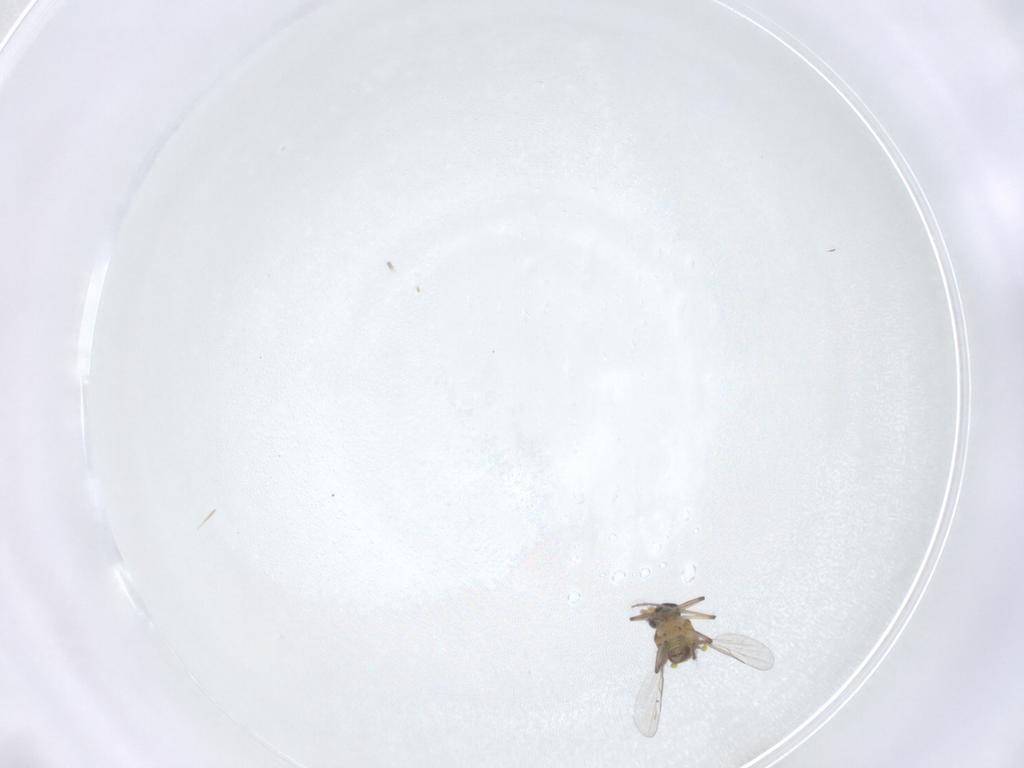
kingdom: Animalia
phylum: Arthropoda
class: Insecta
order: Diptera
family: Ceratopogonidae
